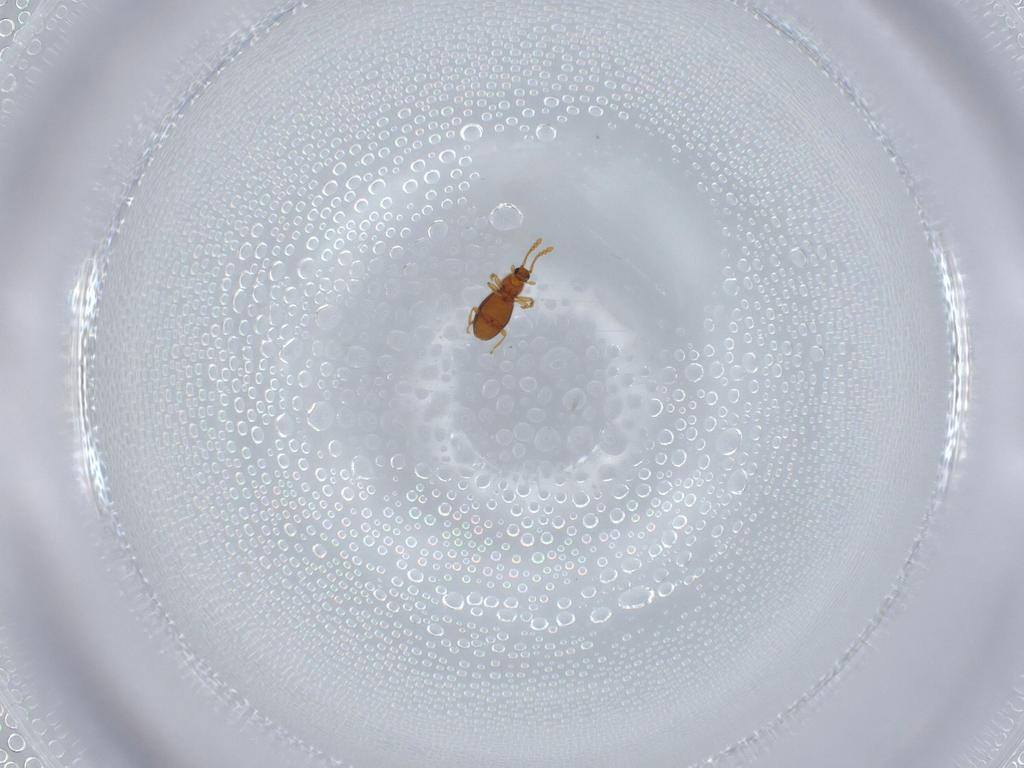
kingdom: Animalia
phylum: Arthropoda
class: Insecta
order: Coleoptera
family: Staphylinidae
